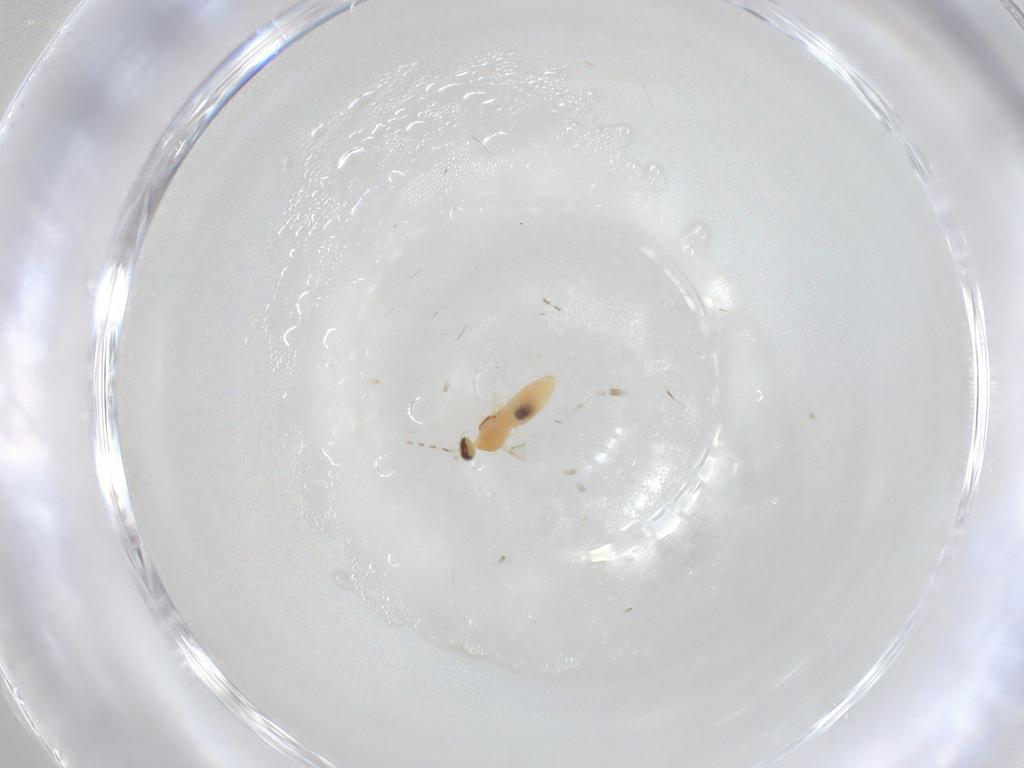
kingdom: Animalia
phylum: Arthropoda
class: Insecta
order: Diptera
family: Cecidomyiidae
